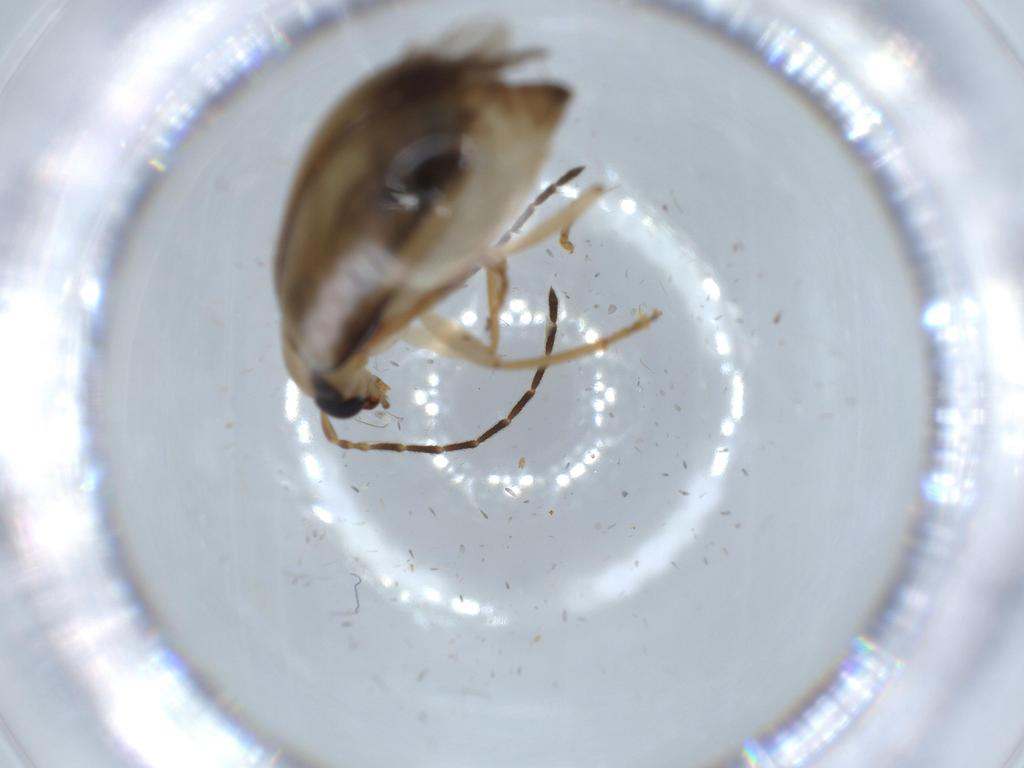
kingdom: Animalia
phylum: Arthropoda
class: Insecta
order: Coleoptera
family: Chrysomelidae
